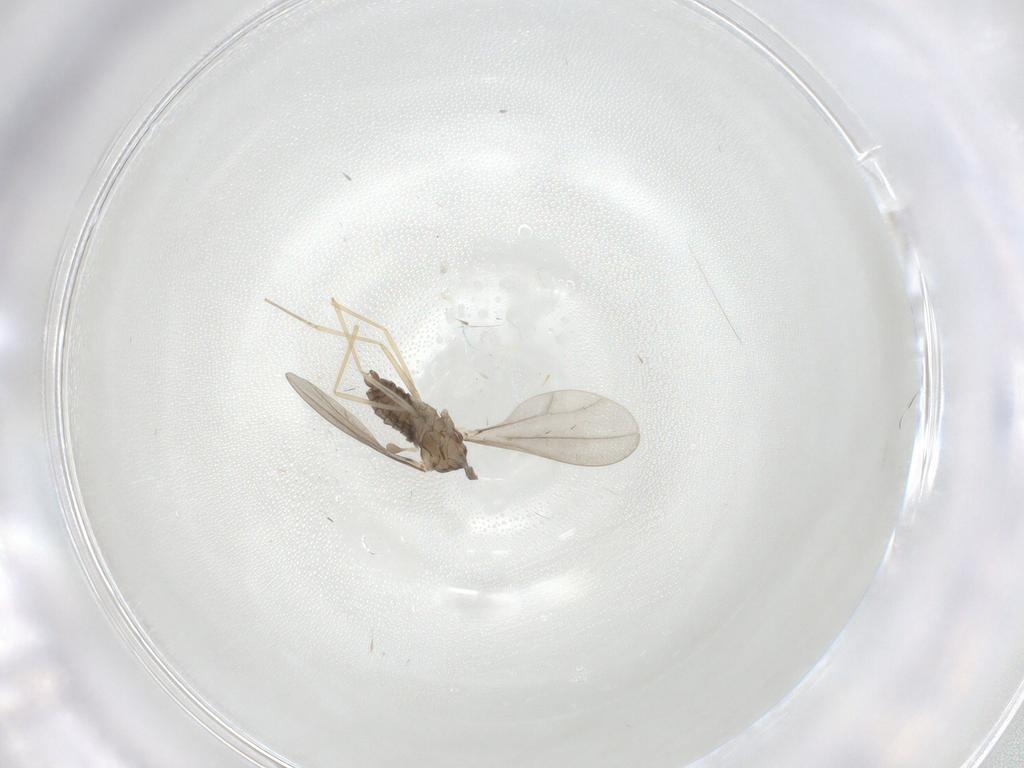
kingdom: Animalia
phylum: Arthropoda
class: Insecta
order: Diptera
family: Cecidomyiidae
